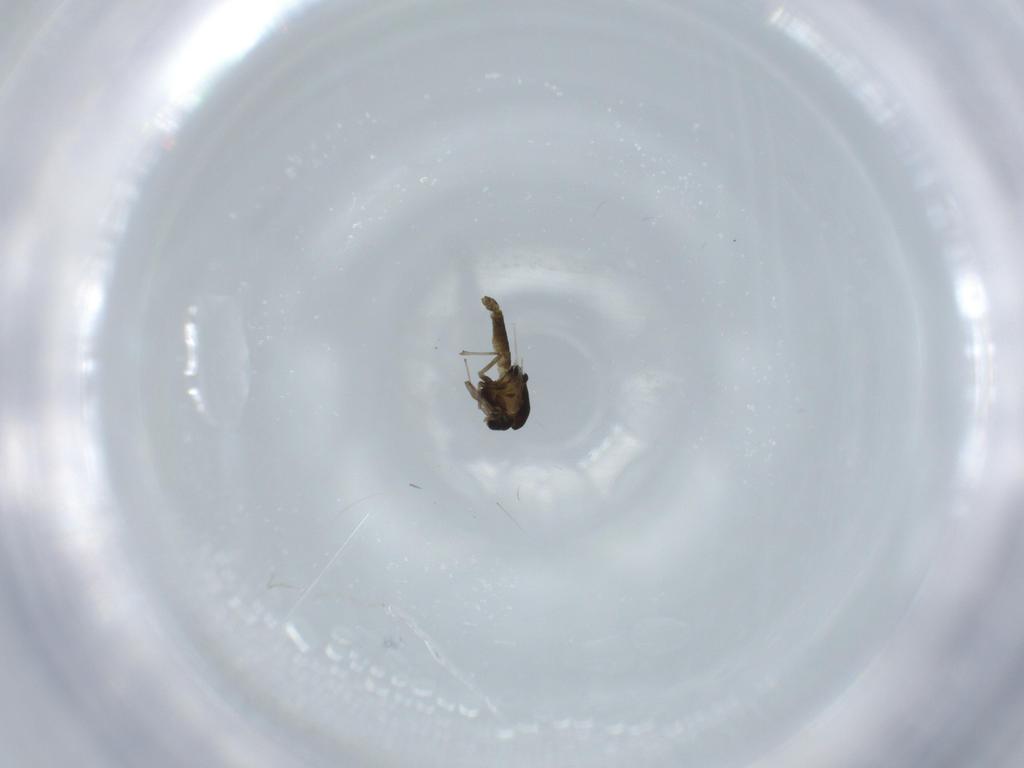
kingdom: Animalia
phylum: Arthropoda
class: Insecta
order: Diptera
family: Chironomidae
